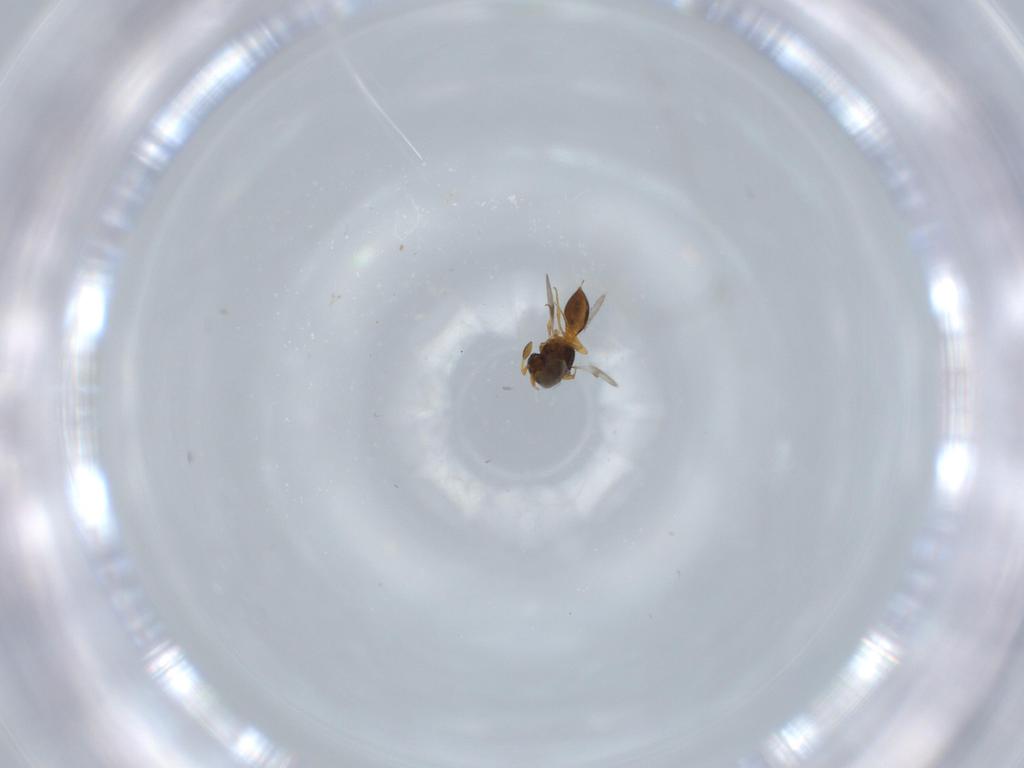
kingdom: Animalia
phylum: Arthropoda
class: Insecta
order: Hymenoptera
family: Scelionidae
